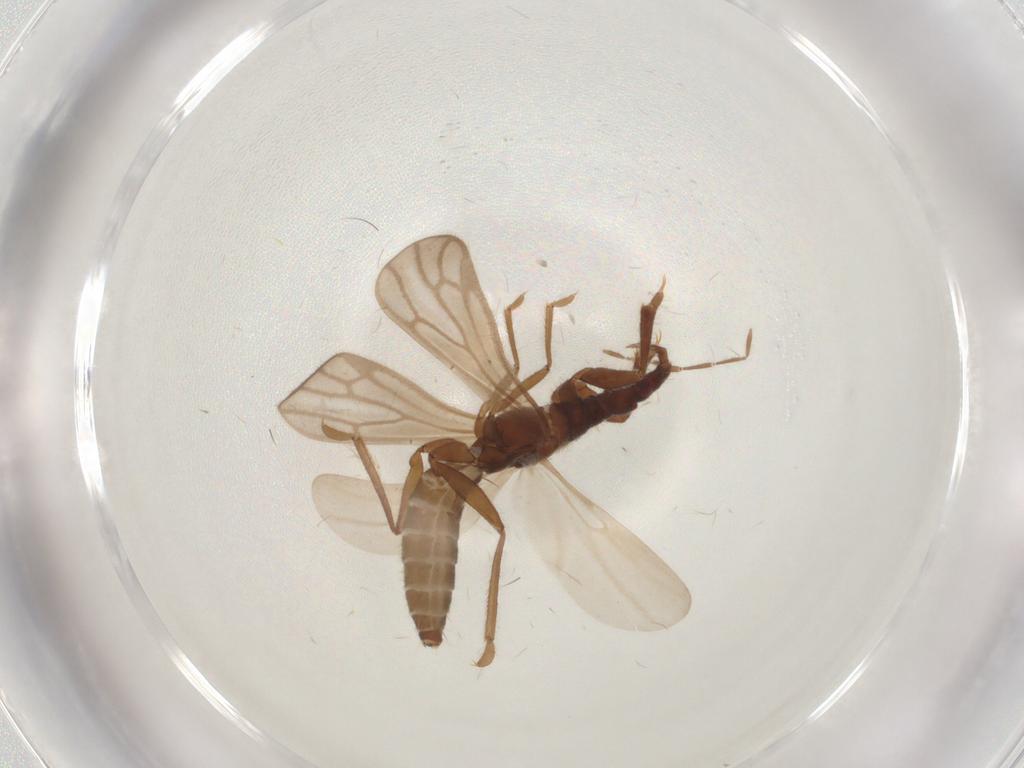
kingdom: Animalia
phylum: Arthropoda
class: Insecta
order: Hemiptera
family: Enicocephalidae
